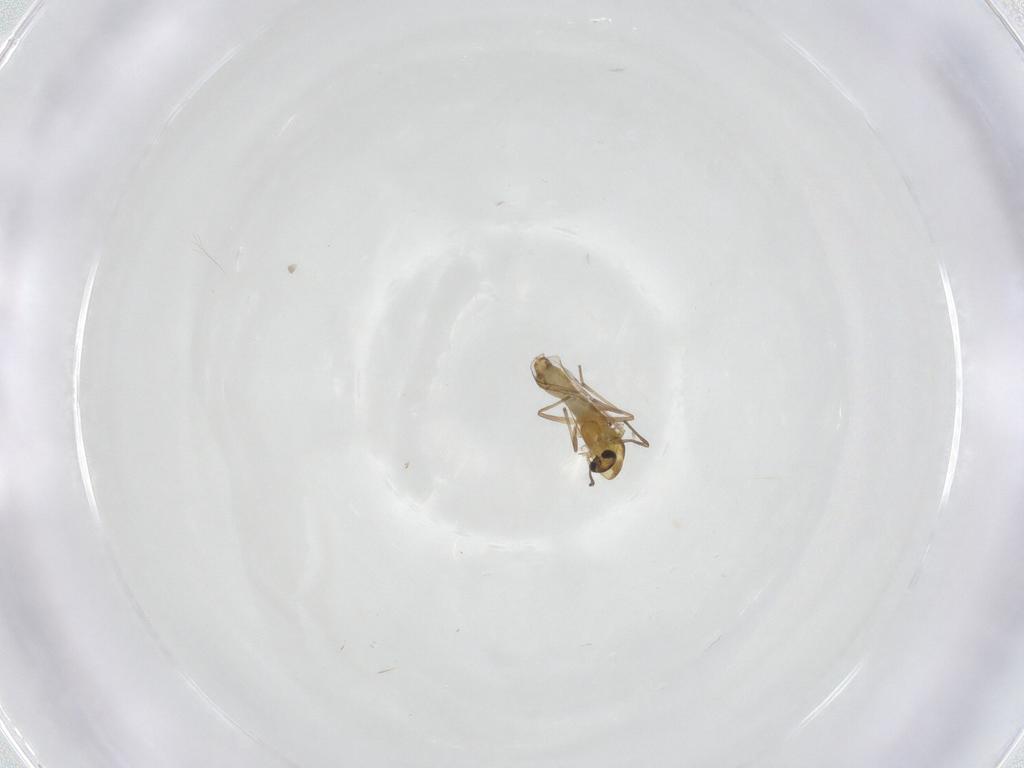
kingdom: Animalia
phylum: Arthropoda
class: Insecta
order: Diptera
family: Chironomidae
